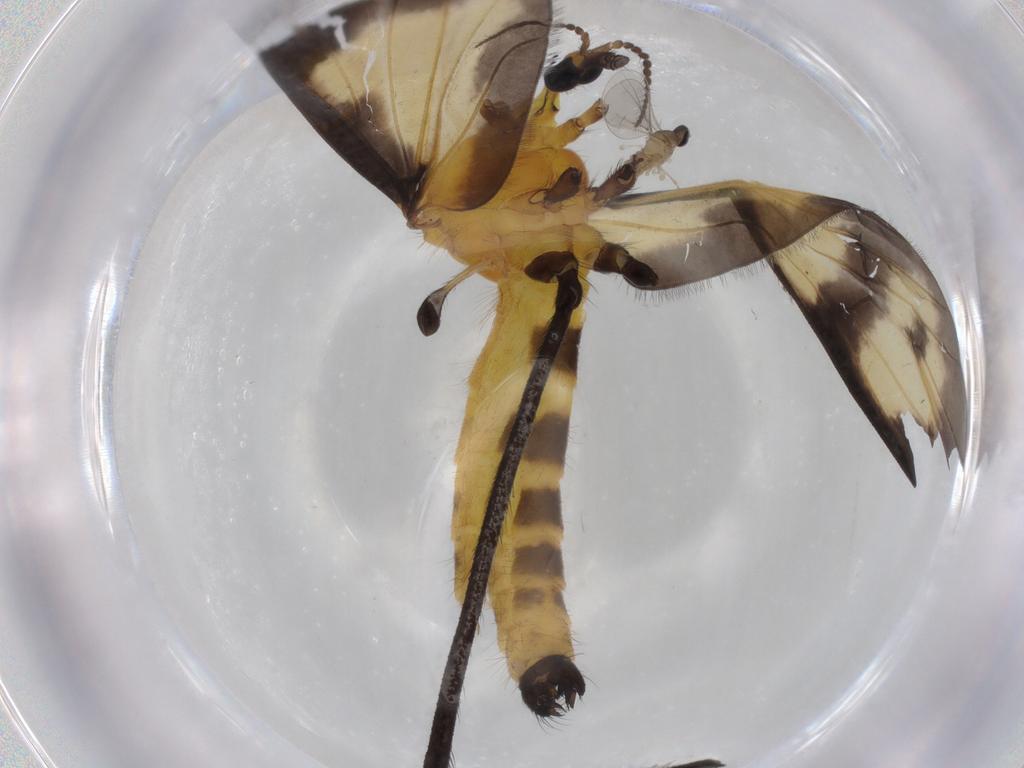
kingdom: Animalia
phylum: Arthropoda
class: Insecta
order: Diptera
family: Limoniidae
